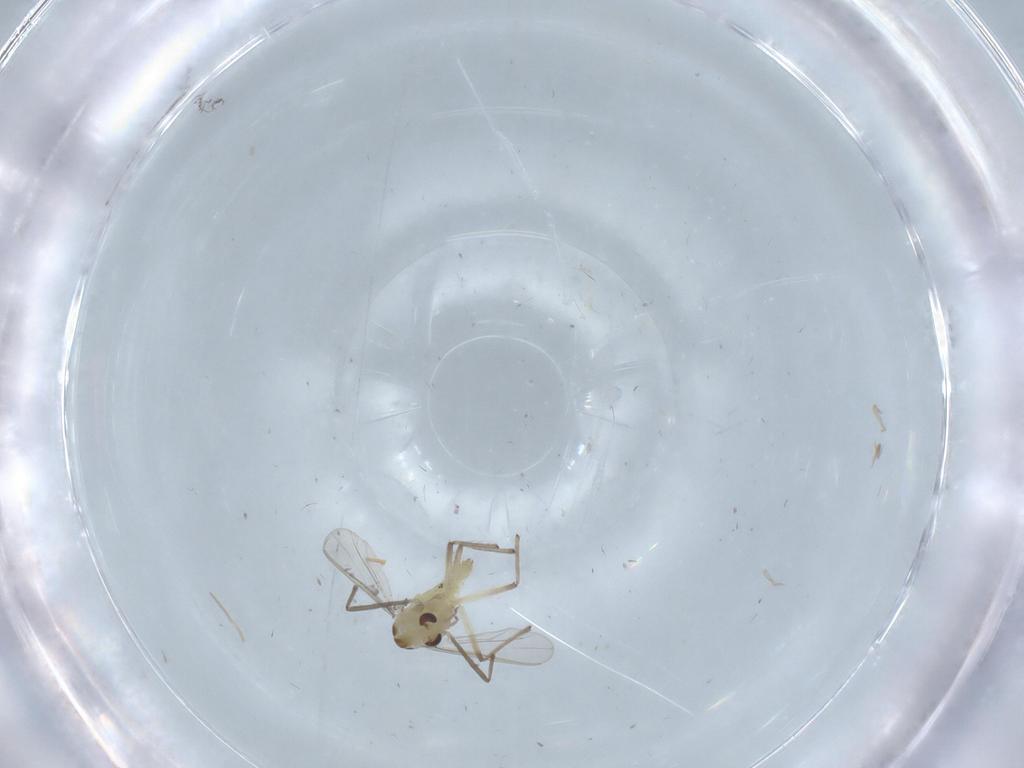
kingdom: Animalia
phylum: Arthropoda
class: Insecta
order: Diptera
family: Chironomidae
